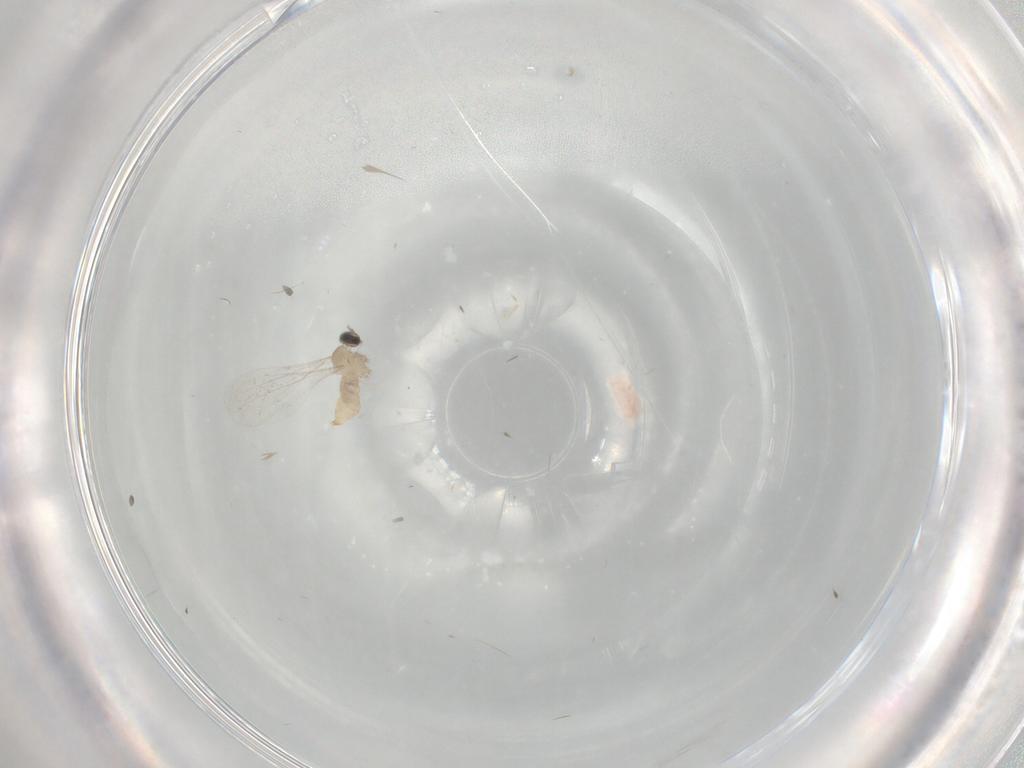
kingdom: Animalia
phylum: Arthropoda
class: Insecta
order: Diptera
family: Cecidomyiidae
